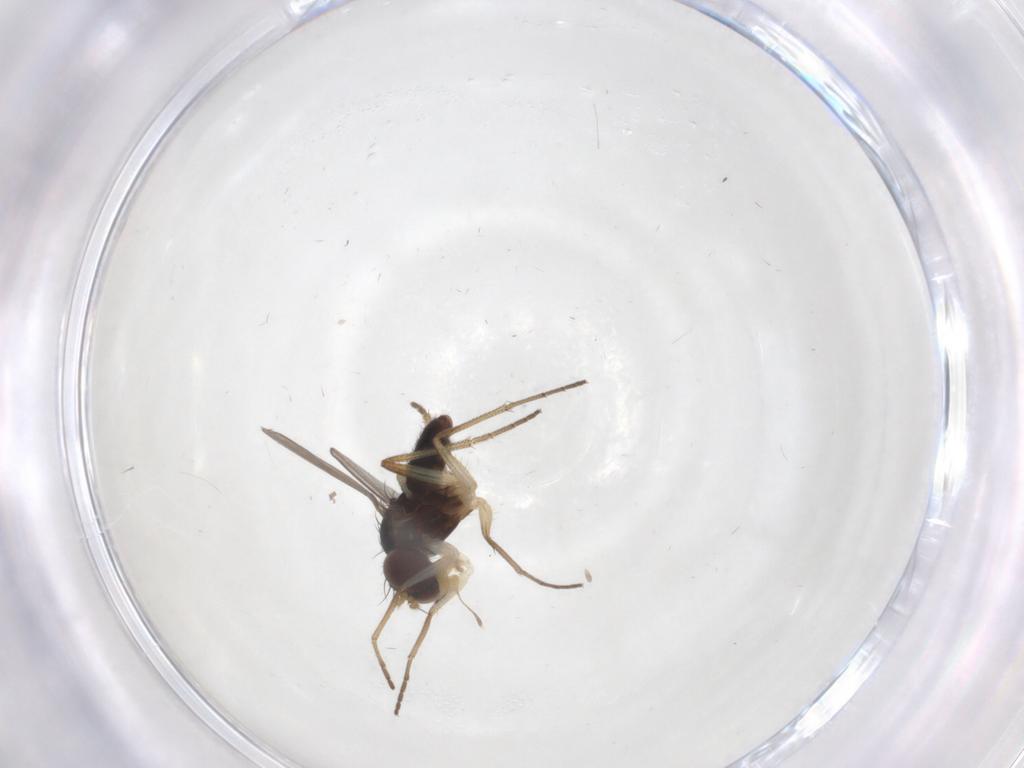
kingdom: Animalia
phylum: Arthropoda
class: Insecta
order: Diptera
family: Dolichopodidae
